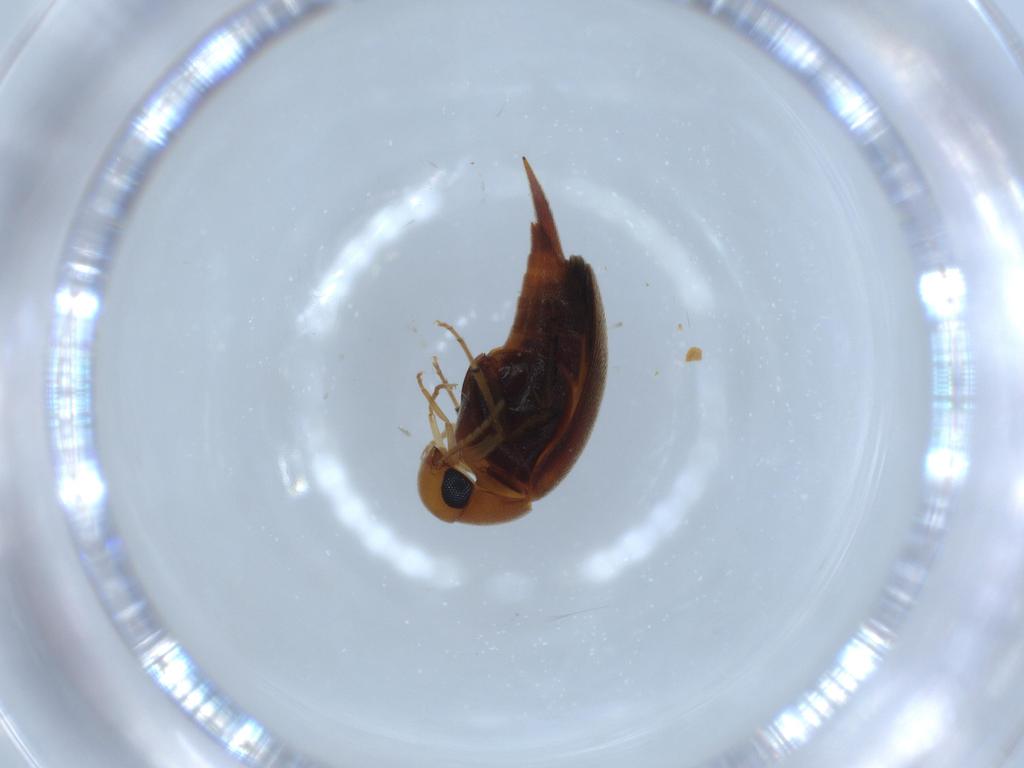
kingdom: Animalia
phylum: Arthropoda
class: Insecta
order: Coleoptera
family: Mordellidae
